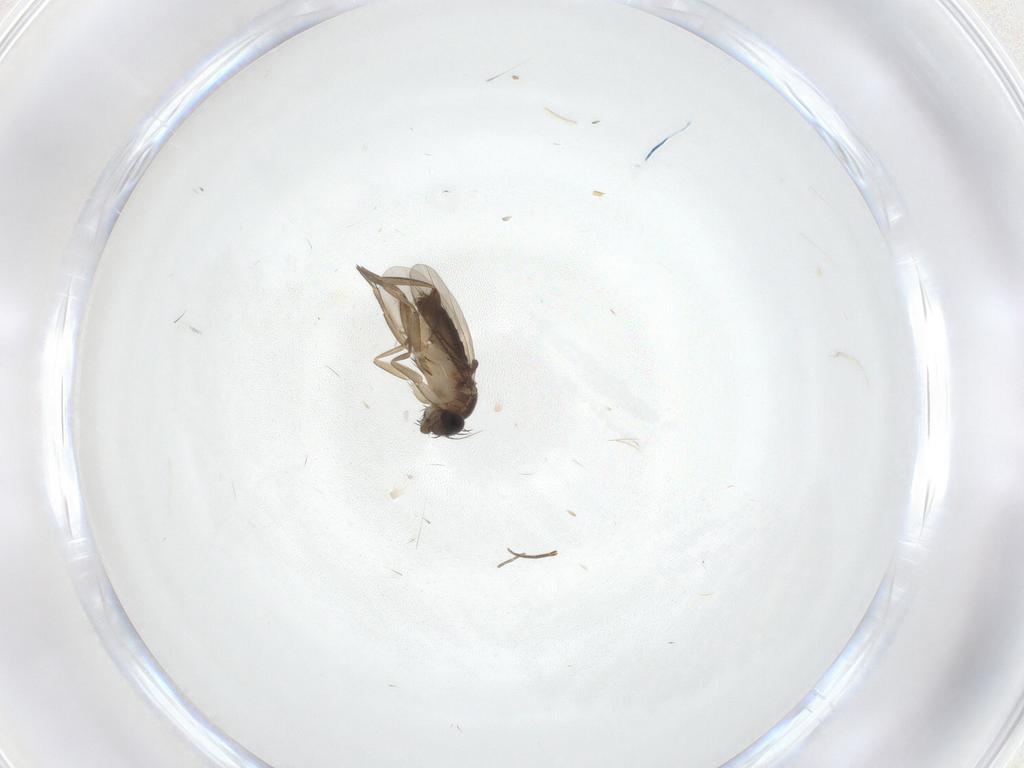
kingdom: Animalia
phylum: Arthropoda
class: Insecta
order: Diptera
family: Phoridae
